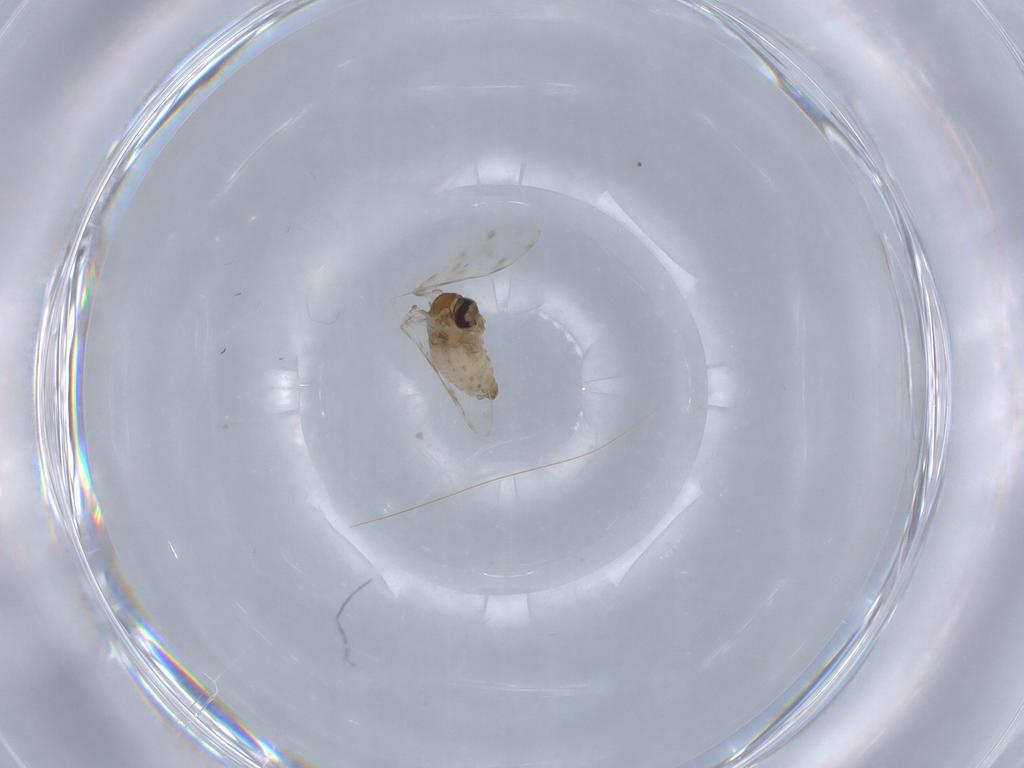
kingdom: Animalia
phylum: Arthropoda
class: Insecta
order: Diptera
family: Psychodidae
